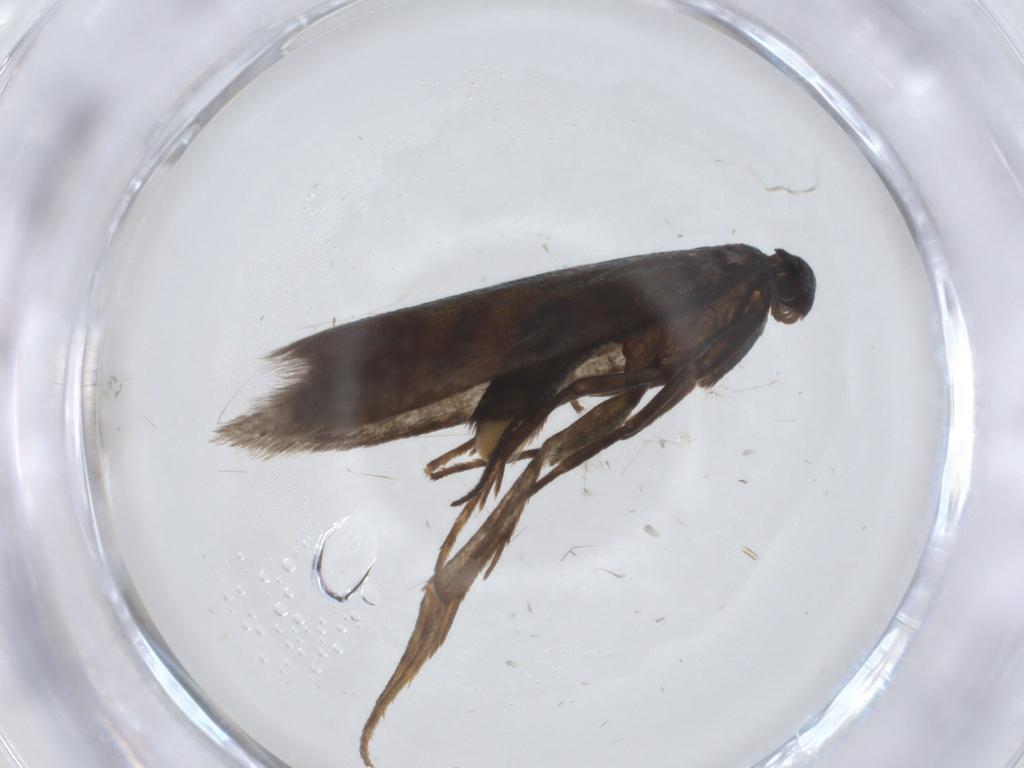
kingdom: Animalia
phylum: Arthropoda
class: Insecta
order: Lepidoptera
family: Argyresthiidae
